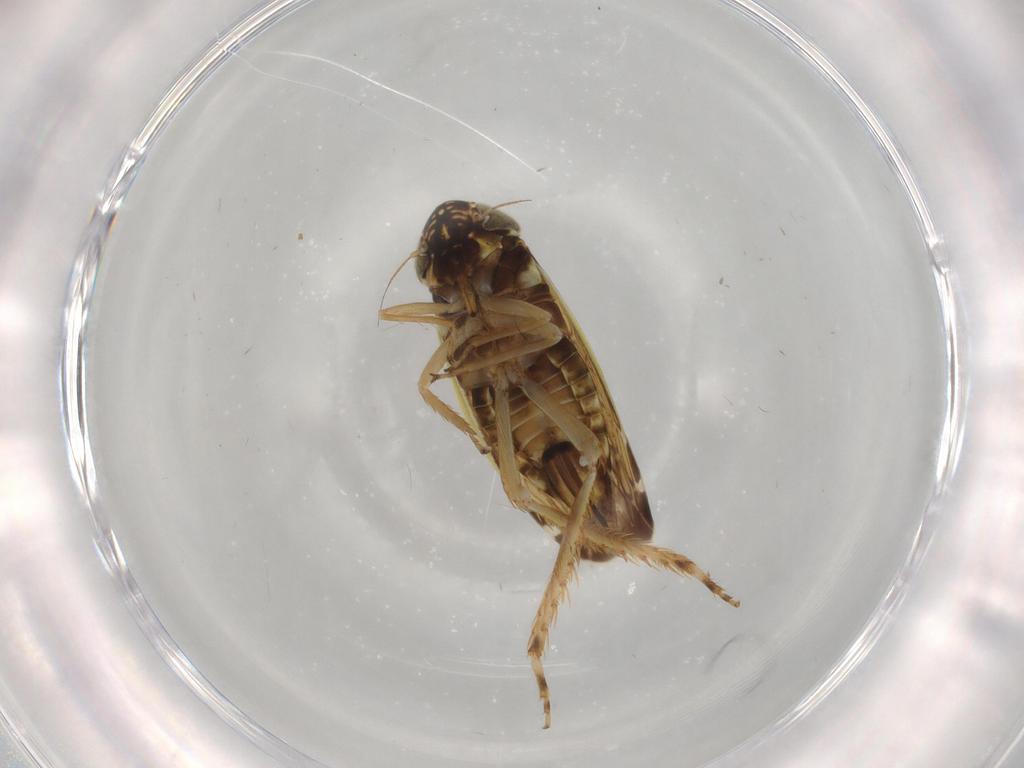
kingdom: Animalia
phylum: Arthropoda
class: Insecta
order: Hemiptera
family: Cicadellidae
